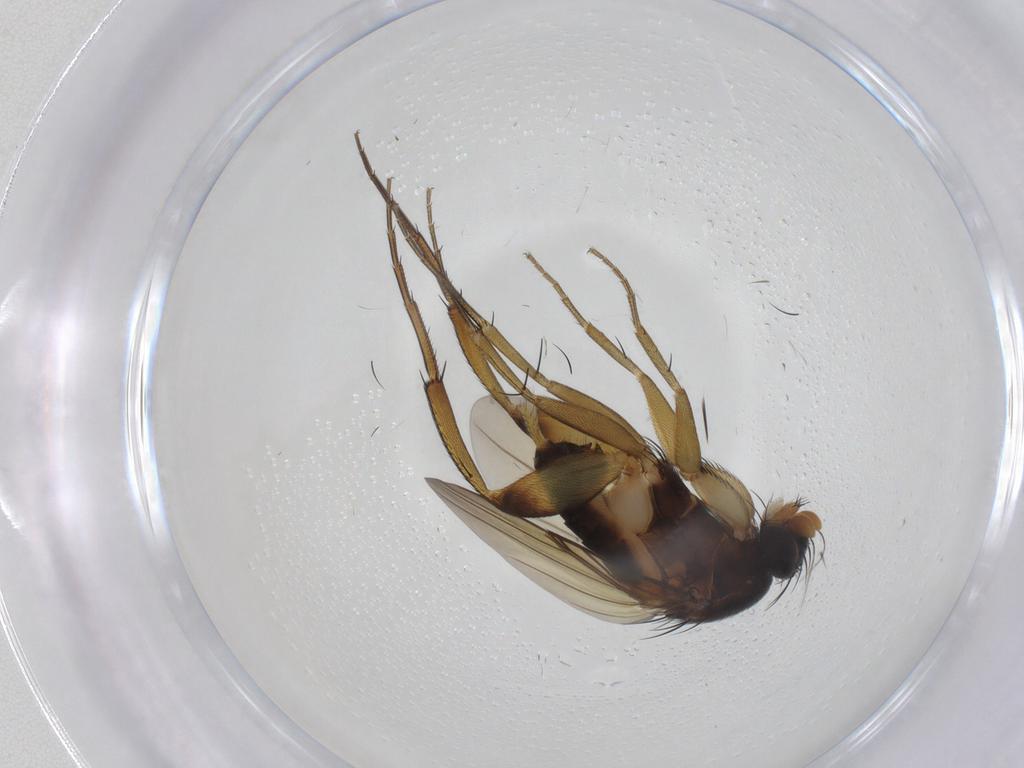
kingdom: Animalia
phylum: Arthropoda
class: Insecta
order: Diptera
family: Phoridae
